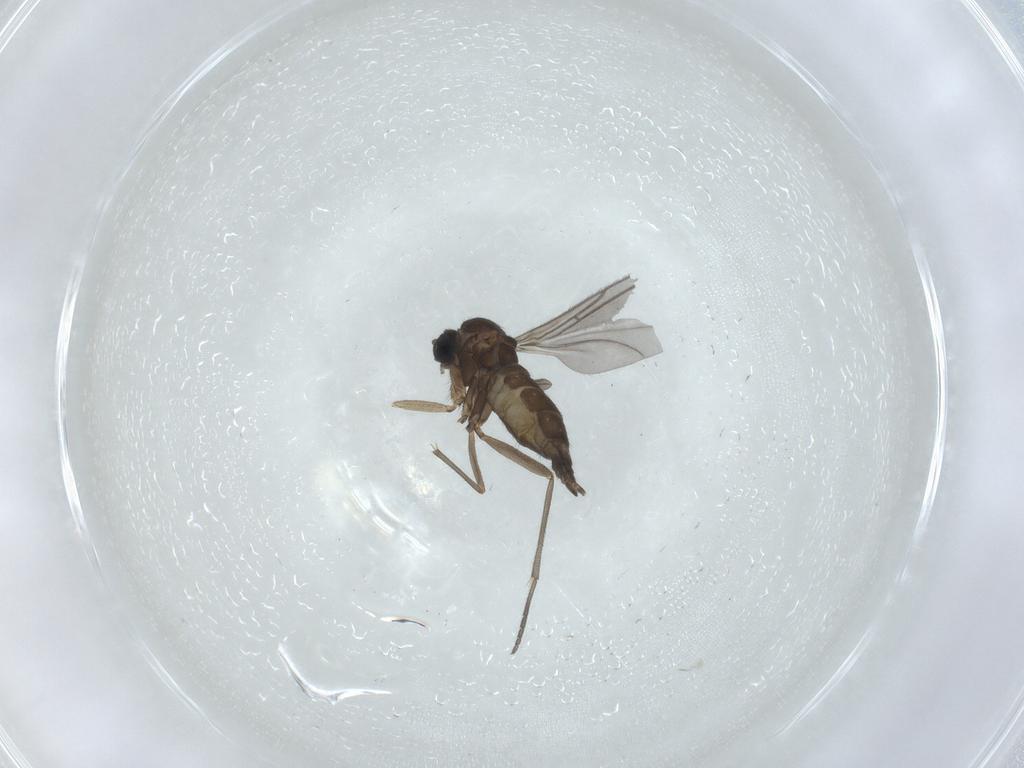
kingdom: Animalia
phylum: Arthropoda
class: Insecta
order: Diptera
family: Sciaridae
